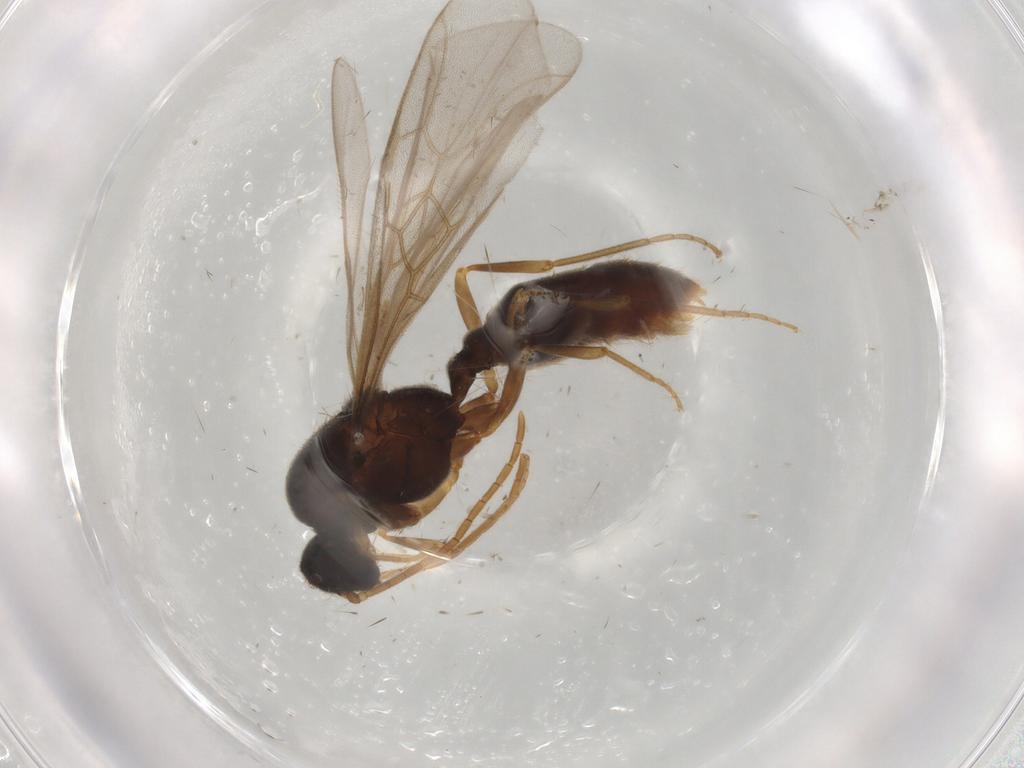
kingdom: Animalia
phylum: Arthropoda
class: Insecta
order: Hymenoptera
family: Formicidae
